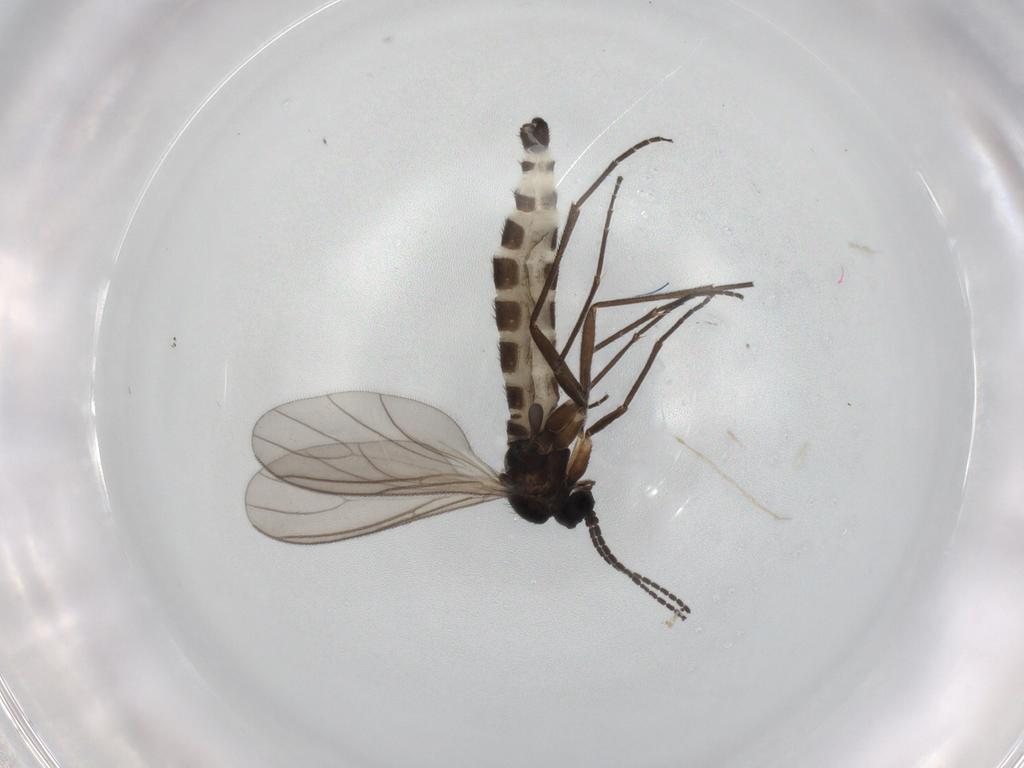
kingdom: Animalia
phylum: Arthropoda
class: Insecta
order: Diptera
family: Sciaridae
